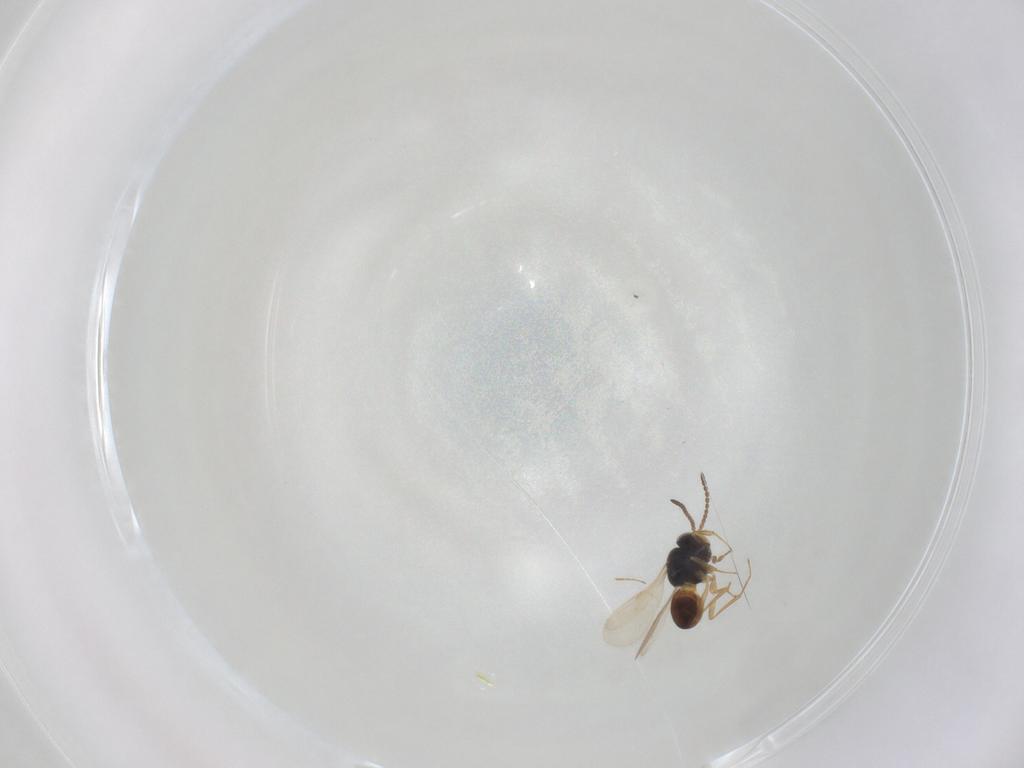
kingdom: Animalia
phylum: Arthropoda
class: Insecta
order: Hymenoptera
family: Scelionidae
